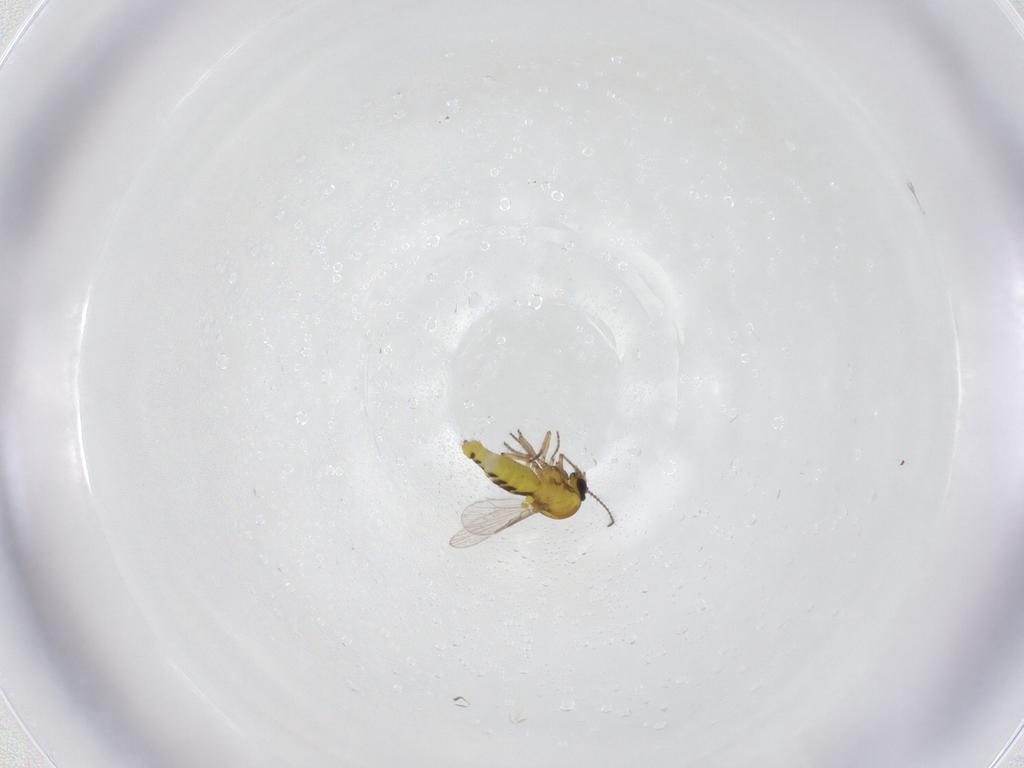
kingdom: Animalia
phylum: Arthropoda
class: Insecta
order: Diptera
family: Ceratopogonidae
